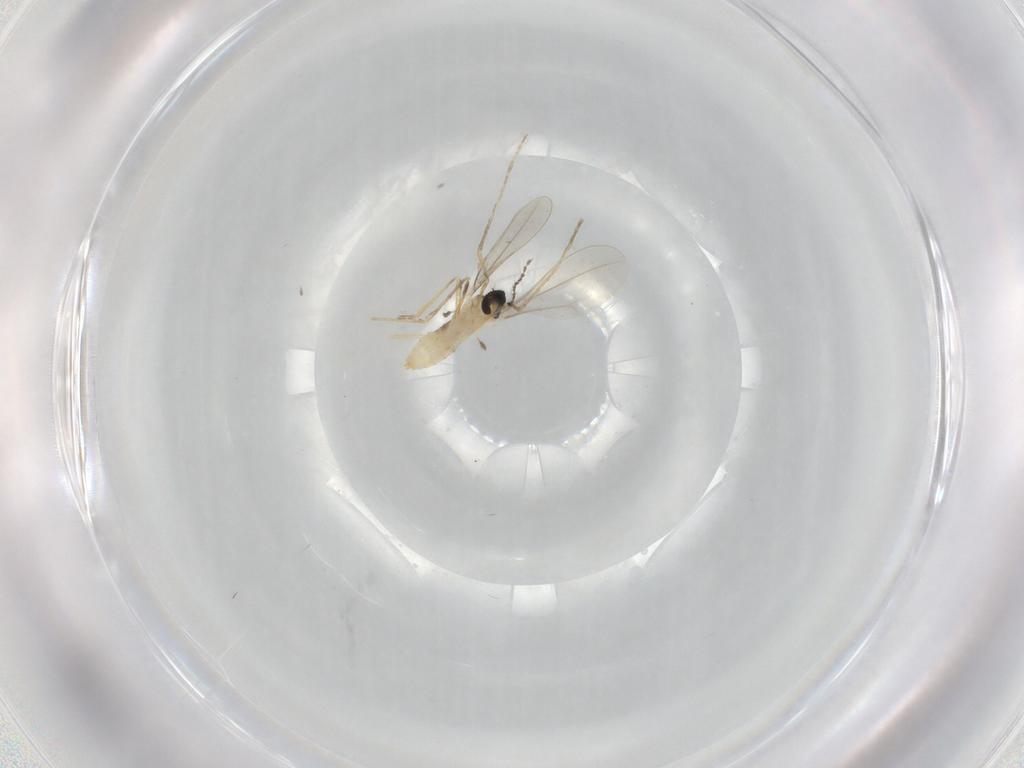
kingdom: Animalia
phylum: Arthropoda
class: Insecta
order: Diptera
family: Cecidomyiidae
